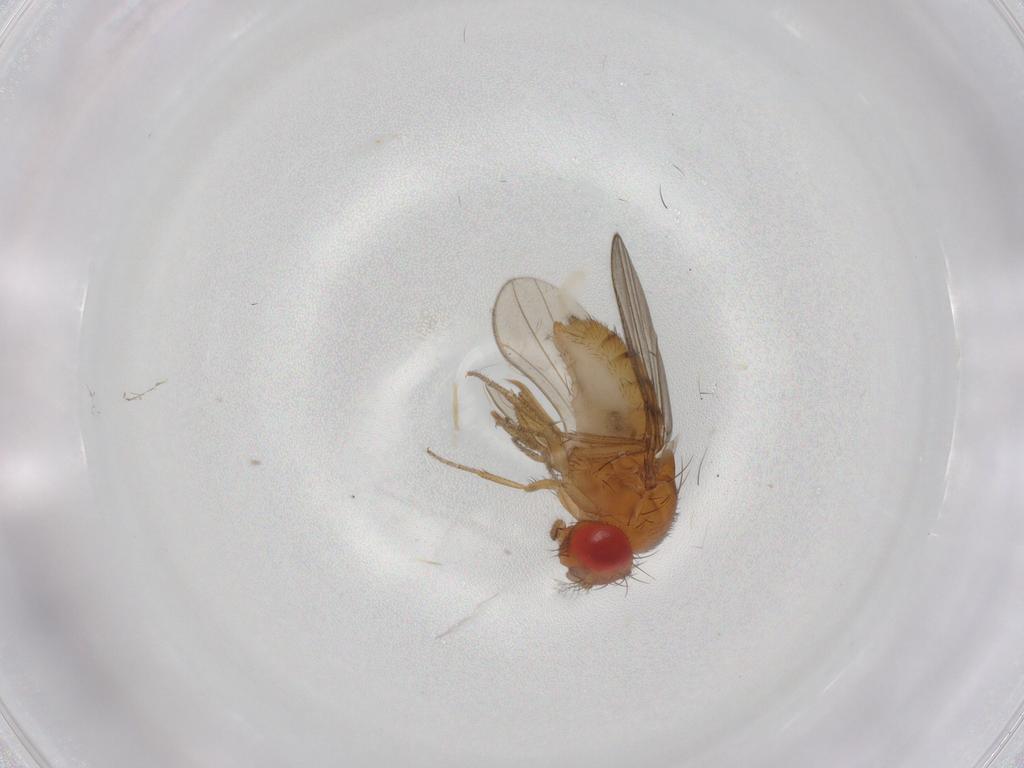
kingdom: Animalia
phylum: Arthropoda
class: Insecta
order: Diptera
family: Drosophilidae
